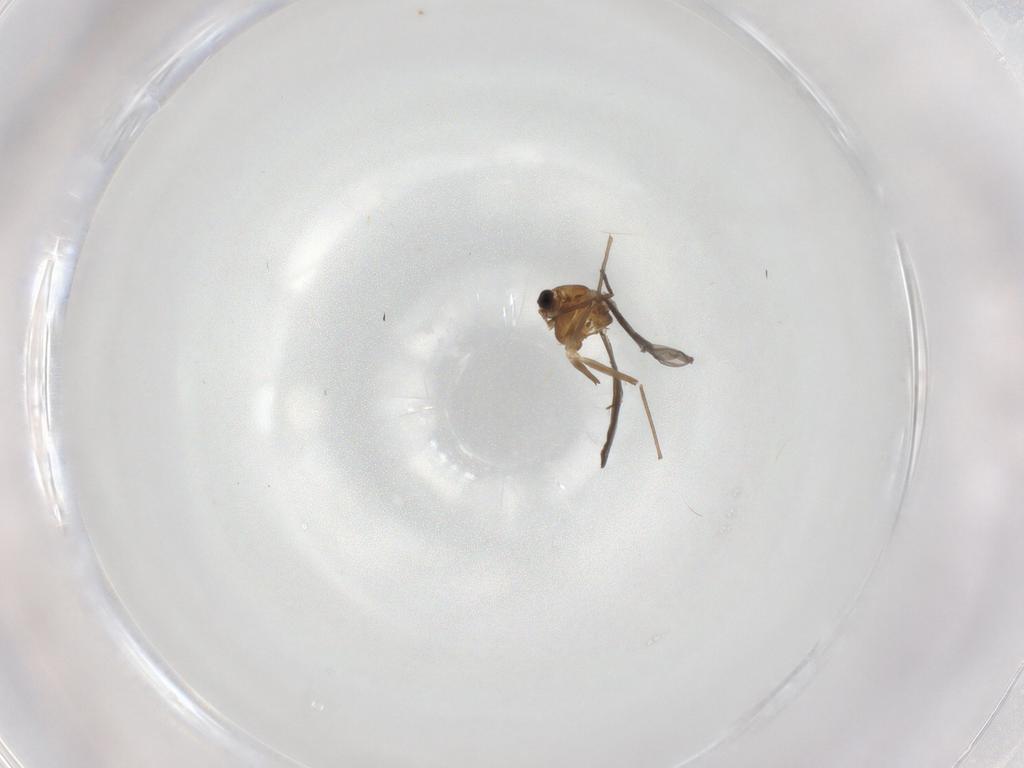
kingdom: Animalia
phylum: Arthropoda
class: Insecta
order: Diptera
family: Chironomidae
